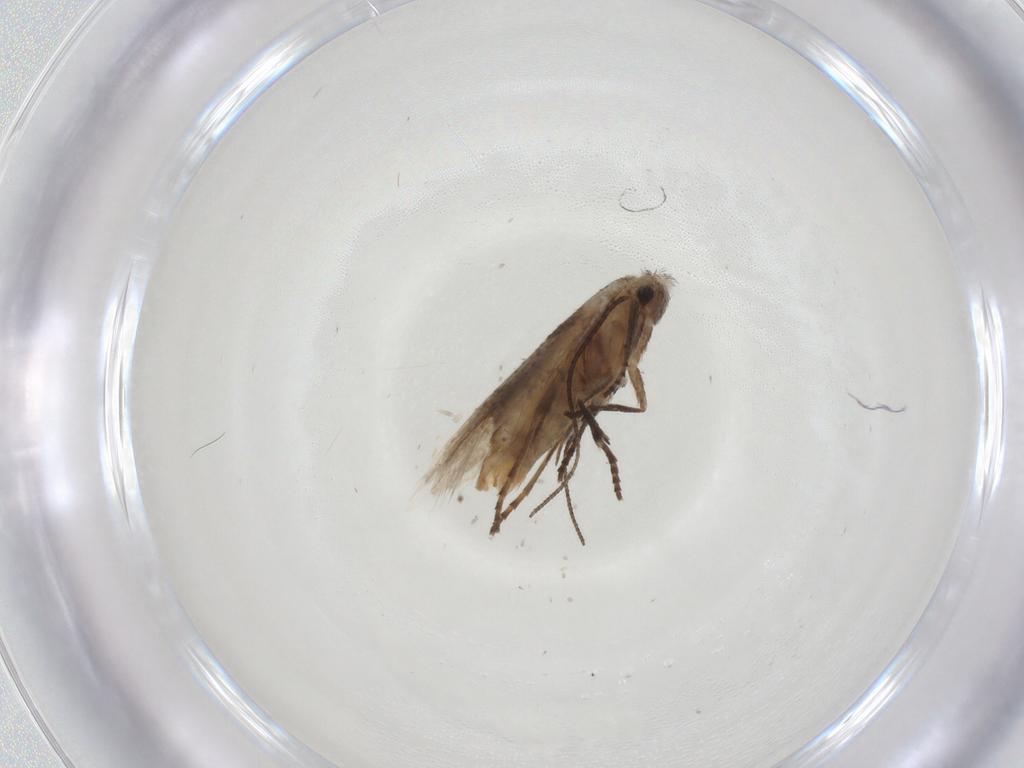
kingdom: Animalia
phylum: Arthropoda
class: Insecta
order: Lepidoptera
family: Bucculatricidae
